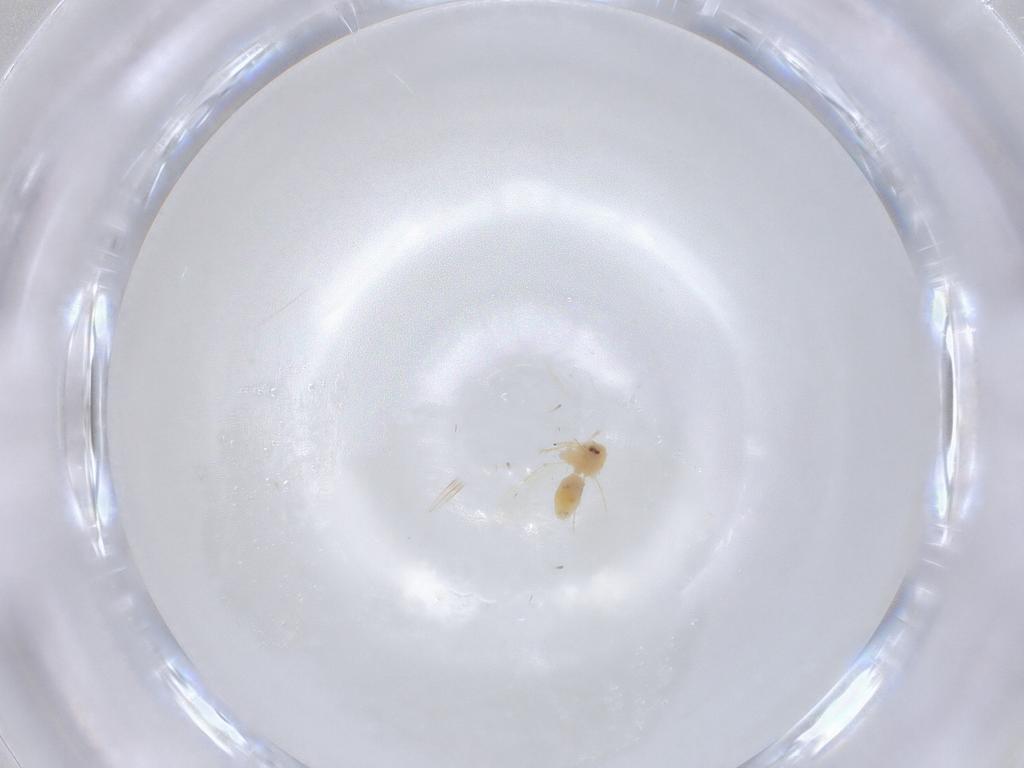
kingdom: Animalia
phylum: Arthropoda
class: Insecta
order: Hemiptera
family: Aleyrodidae
